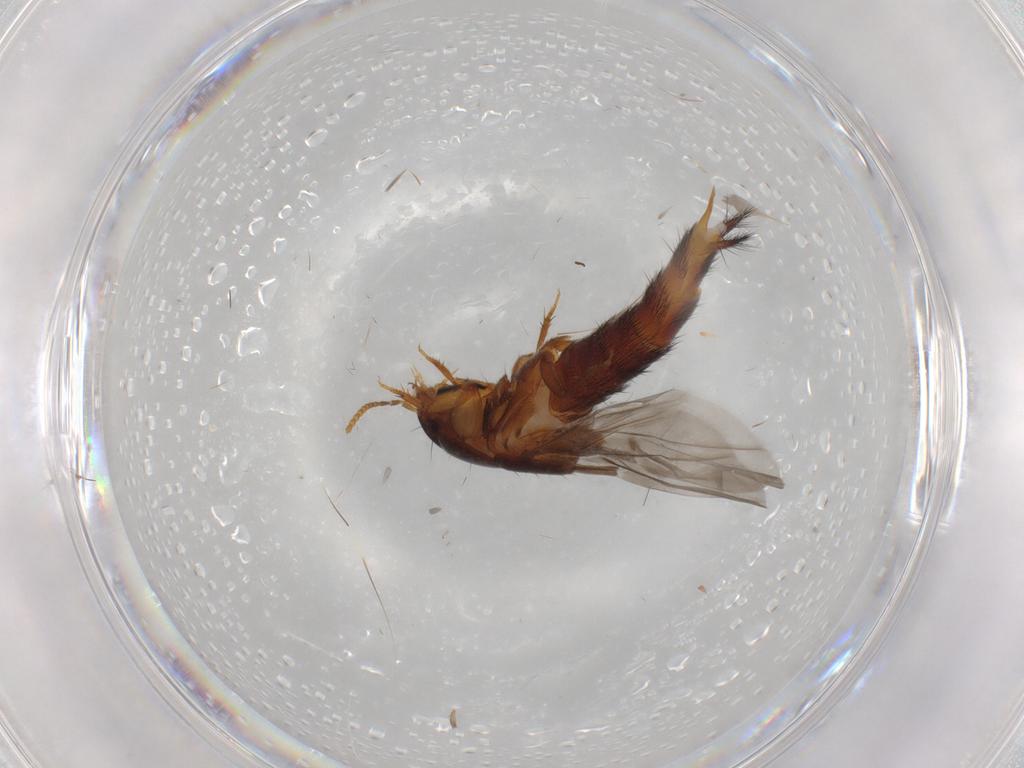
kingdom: Animalia
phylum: Arthropoda
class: Insecta
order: Coleoptera
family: Staphylinidae
